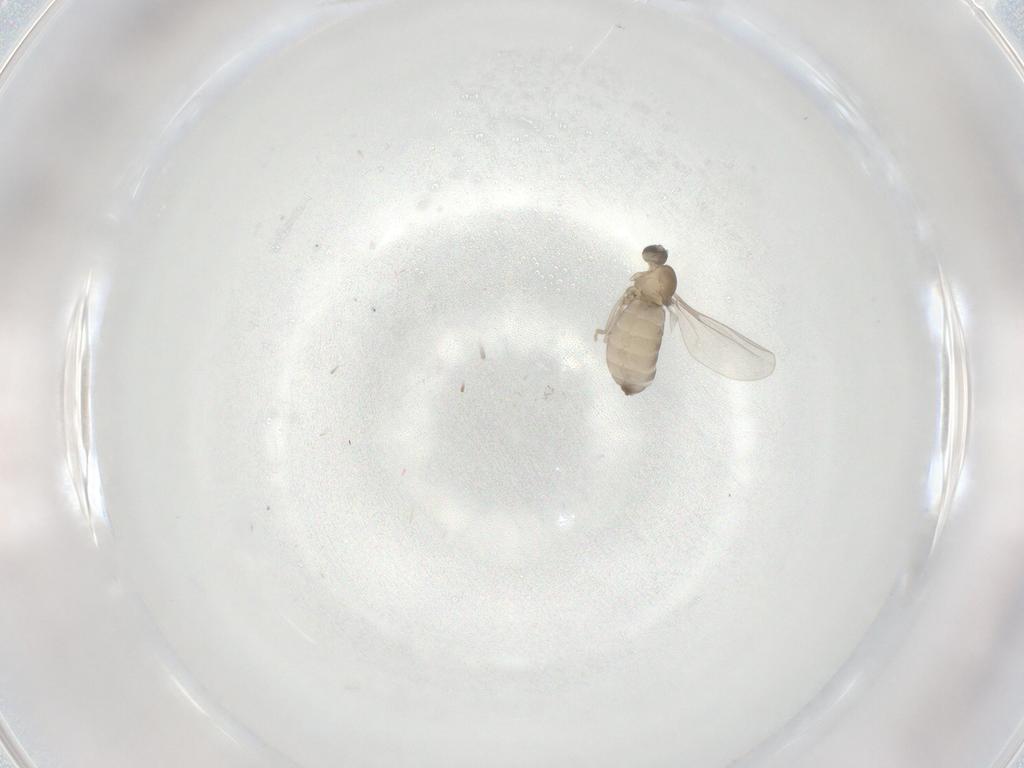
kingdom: Animalia
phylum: Arthropoda
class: Insecta
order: Diptera
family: Cecidomyiidae
